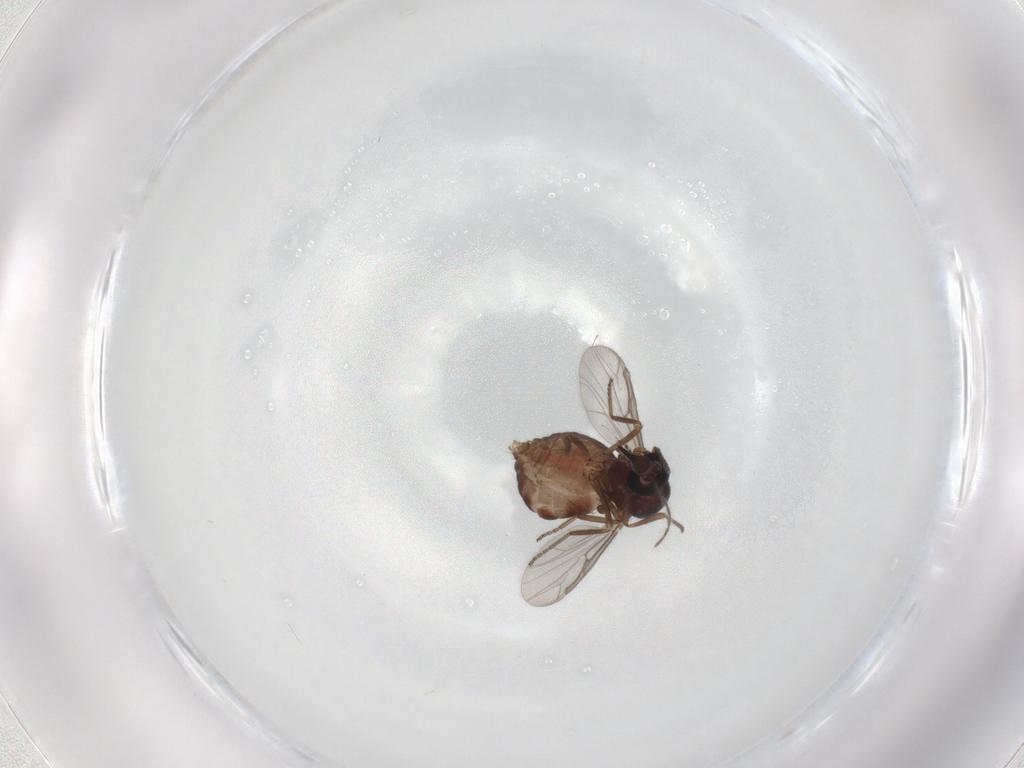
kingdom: Animalia
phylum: Arthropoda
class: Insecta
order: Diptera
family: Ceratopogonidae
